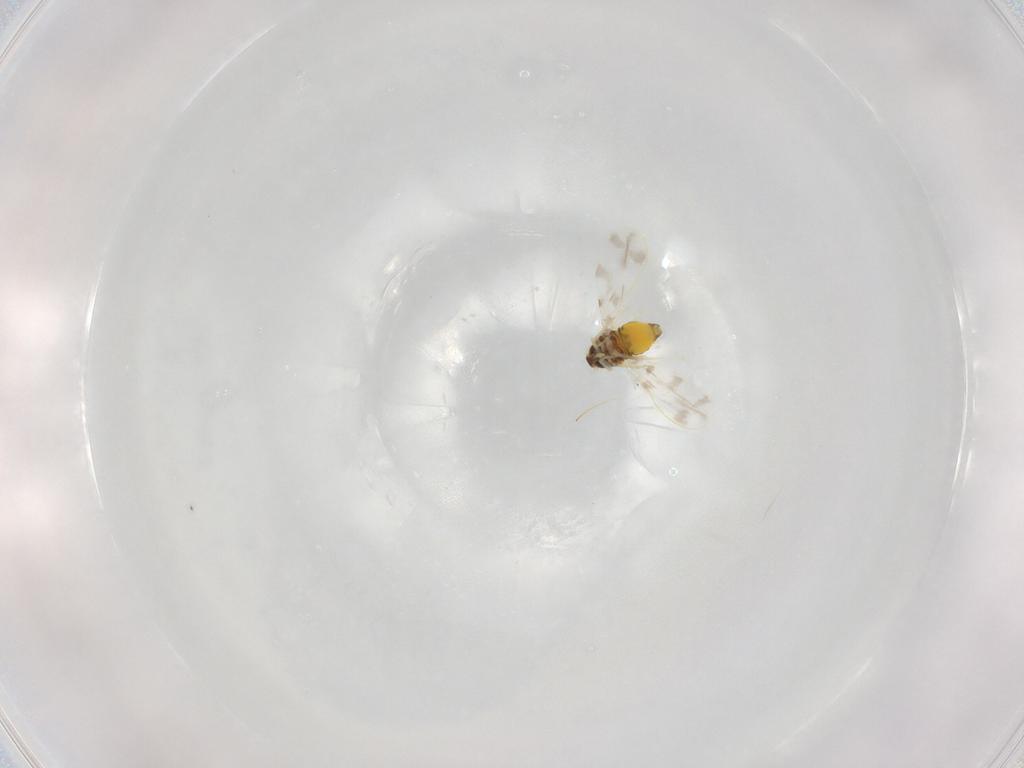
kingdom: Animalia
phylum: Arthropoda
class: Insecta
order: Hemiptera
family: Aleyrodidae
